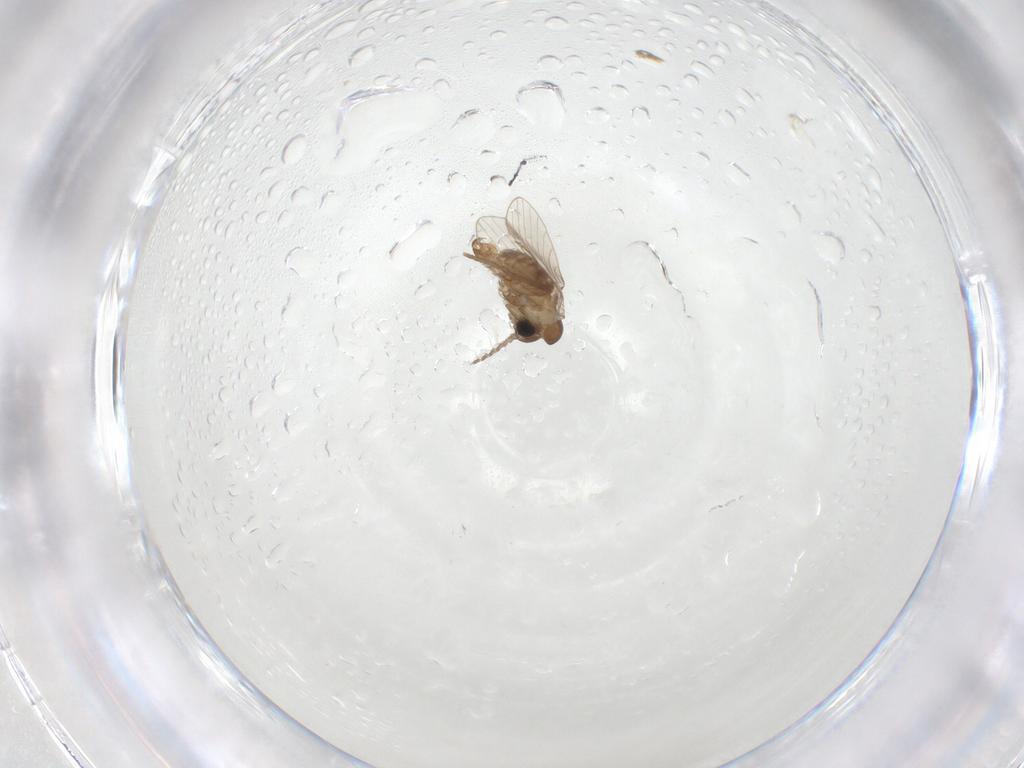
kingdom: Animalia
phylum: Arthropoda
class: Insecta
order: Diptera
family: Psychodidae
